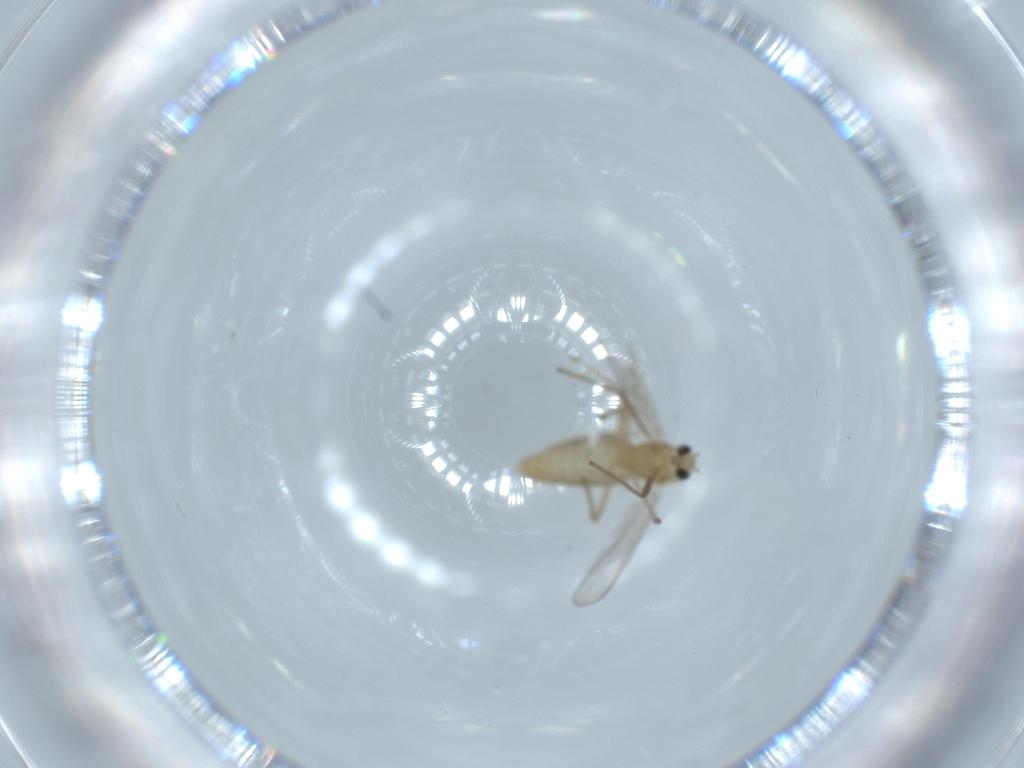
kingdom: Animalia
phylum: Arthropoda
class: Insecta
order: Diptera
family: Chironomidae
